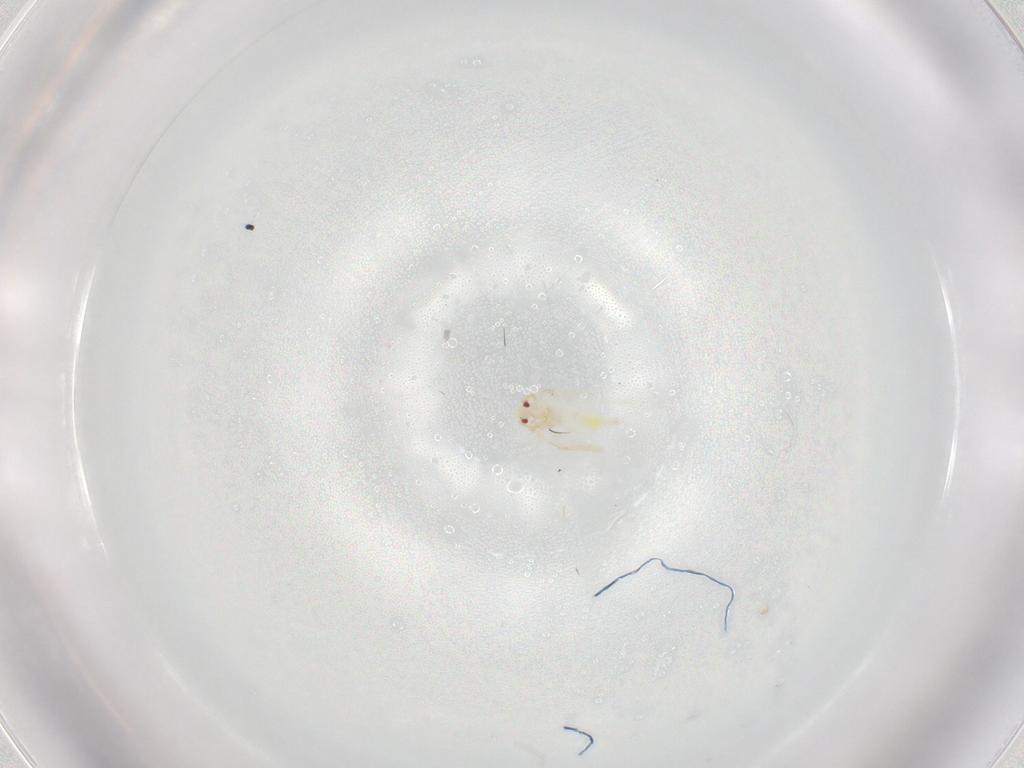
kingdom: Animalia
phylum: Arthropoda
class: Insecta
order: Hemiptera
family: Aleyrodidae
